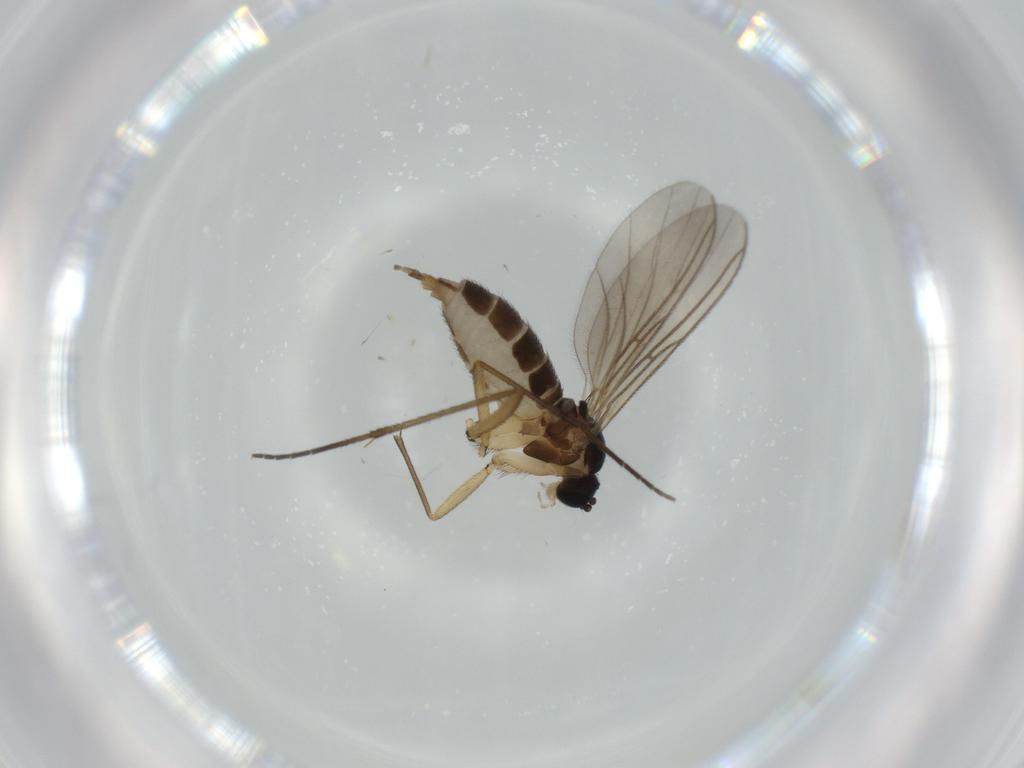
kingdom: Animalia
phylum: Arthropoda
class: Insecta
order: Diptera
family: Sciaridae
